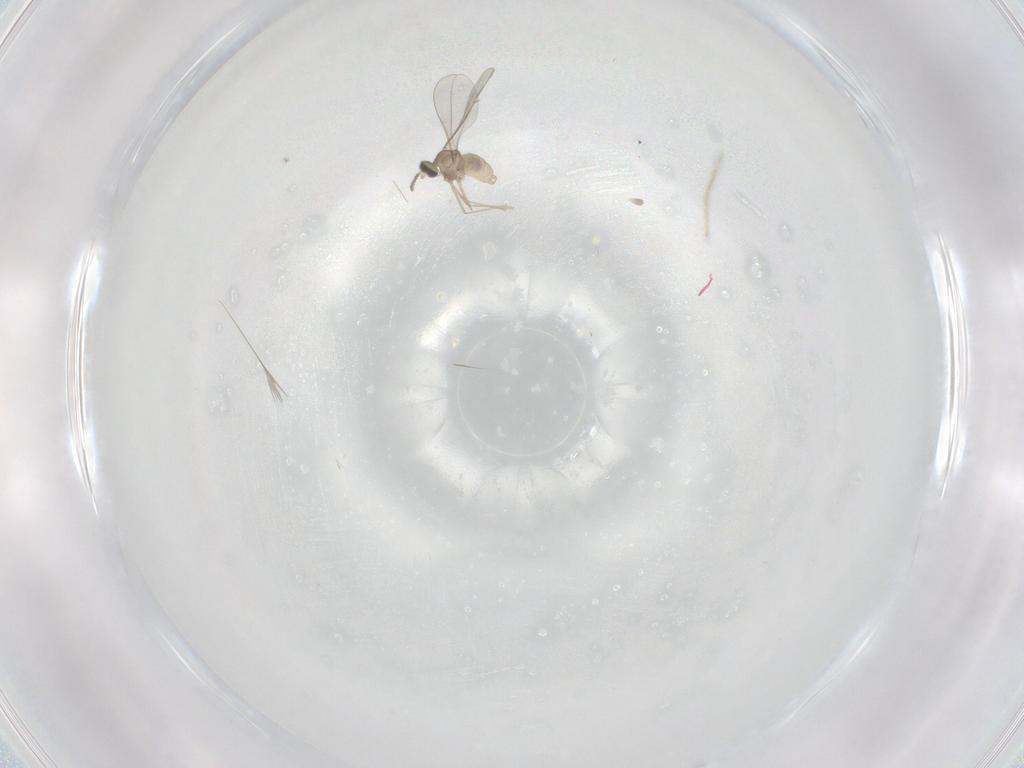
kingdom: Animalia
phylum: Arthropoda
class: Insecta
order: Diptera
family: Cecidomyiidae
